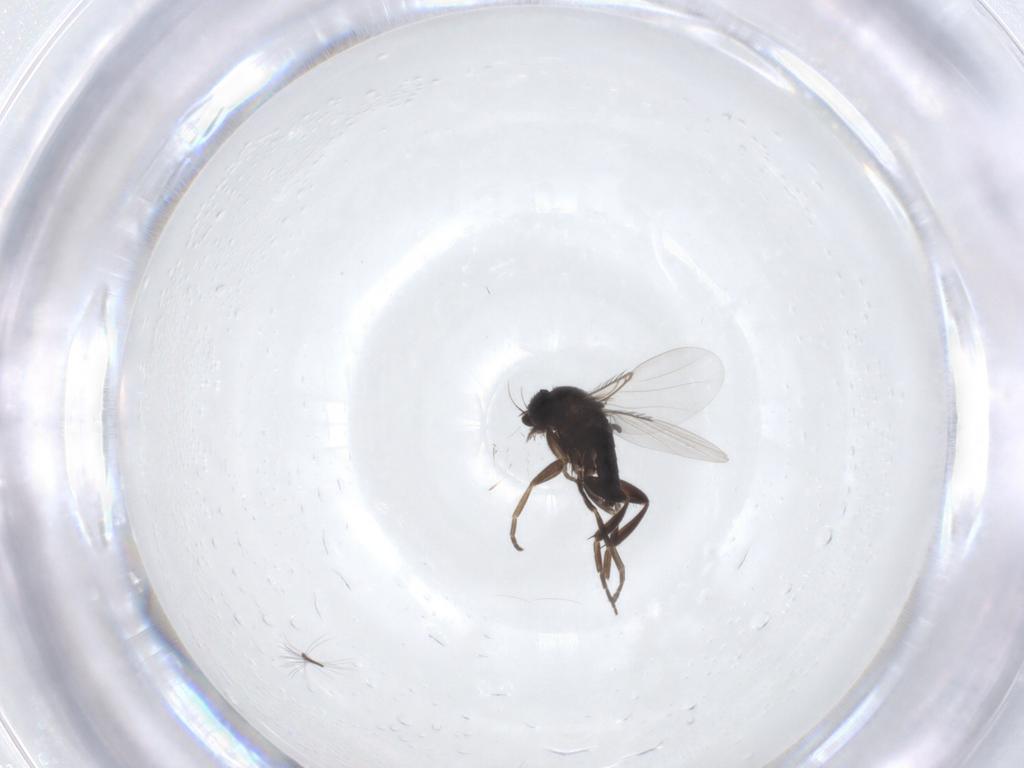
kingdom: Animalia
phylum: Arthropoda
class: Insecta
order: Diptera
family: Phoridae
